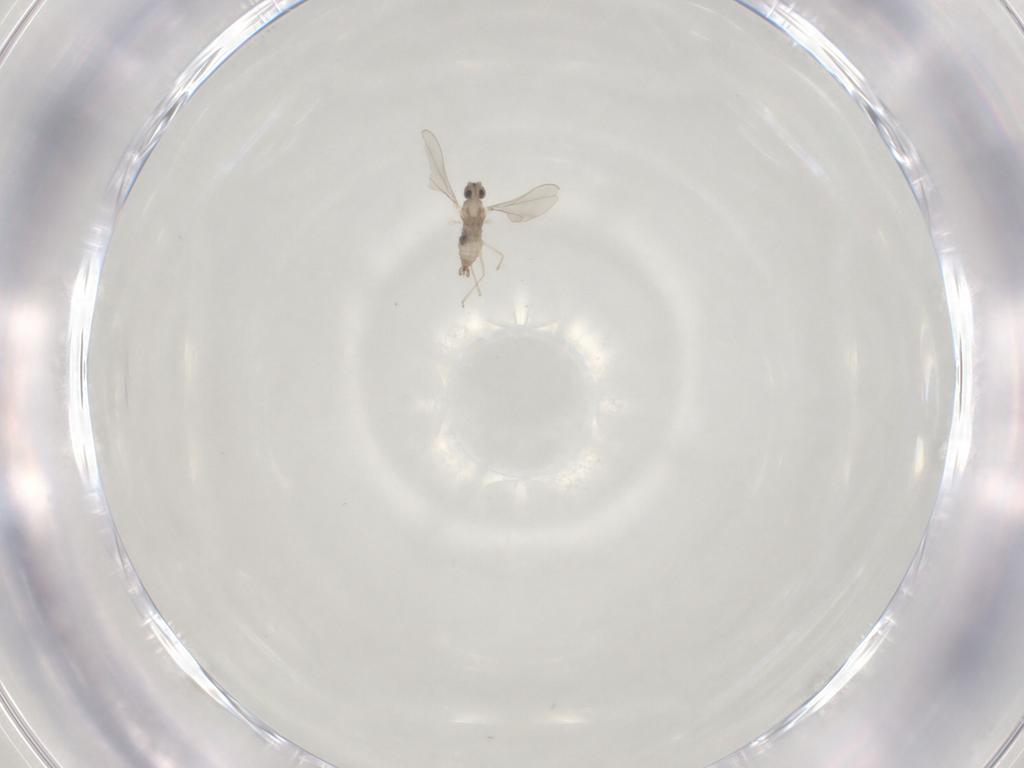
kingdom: Animalia
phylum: Arthropoda
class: Insecta
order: Diptera
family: Cecidomyiidae
